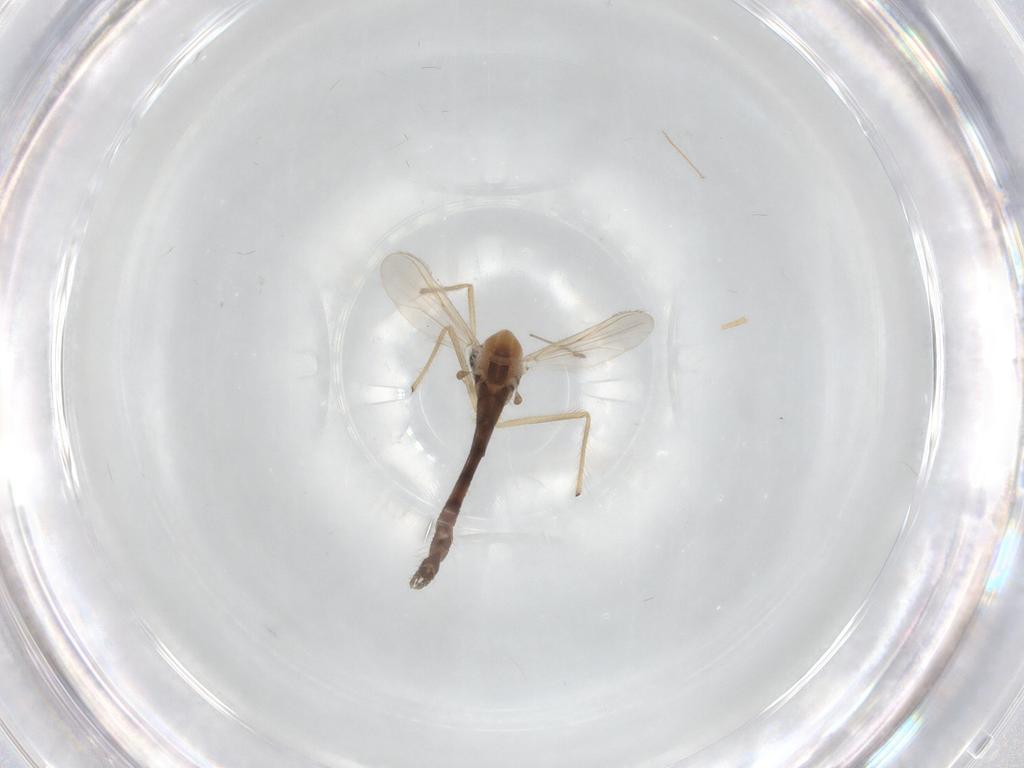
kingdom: Animalia
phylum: Arthropoda
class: Insecta
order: Diptera
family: Chironomidae
